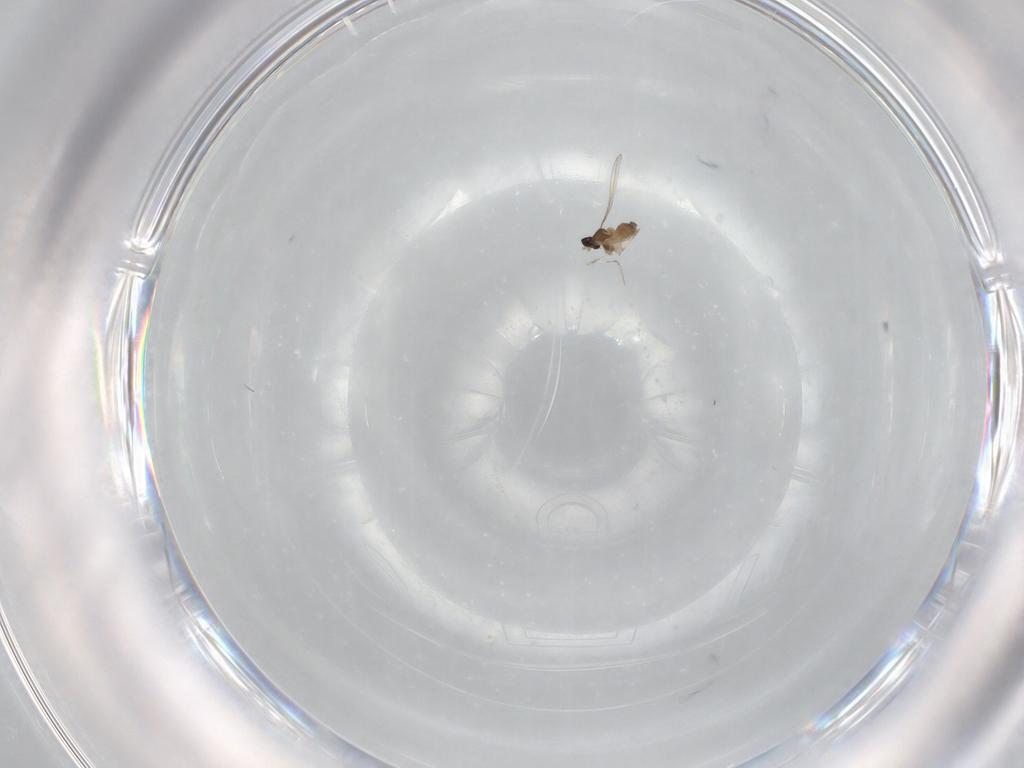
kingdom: Animalia
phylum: Arthropoda
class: Insecta
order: Diptera
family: Cecidomyiidae
